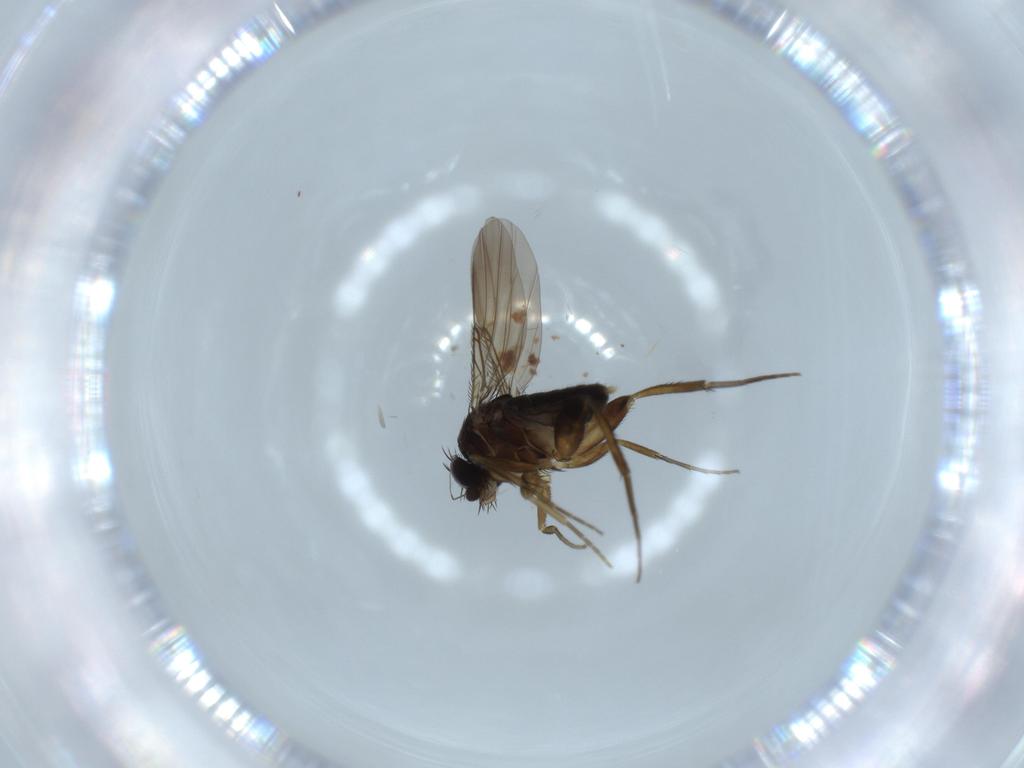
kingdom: Animalia
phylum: Arthropoda
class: Insecta
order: Diptera
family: Phoridae
